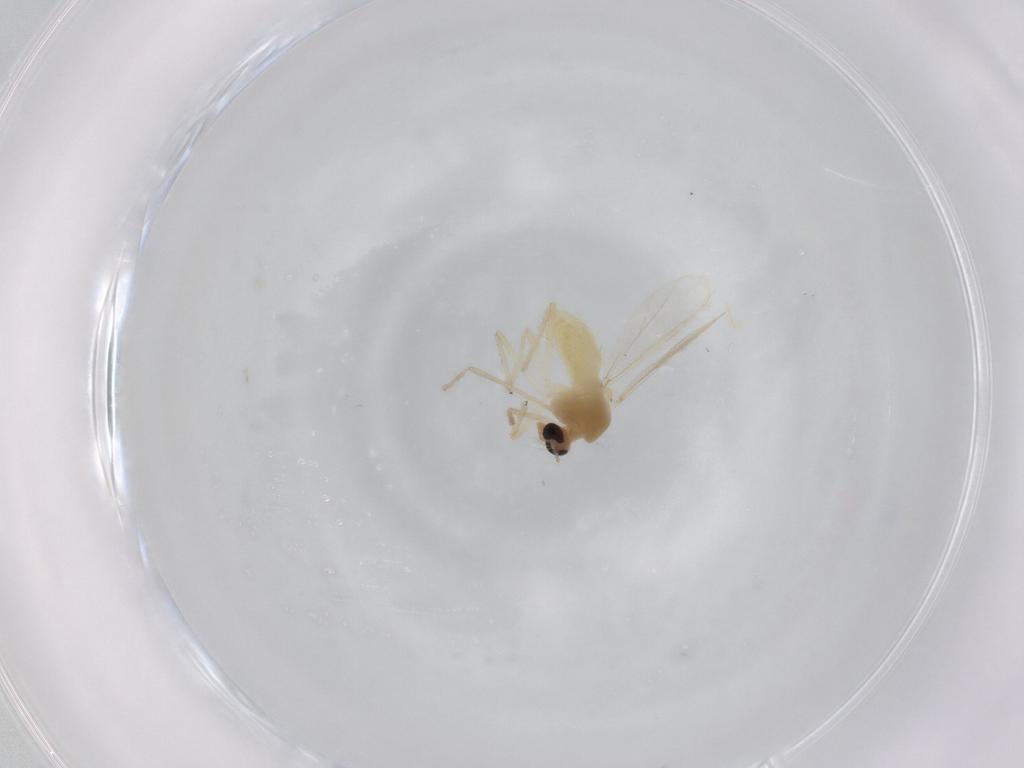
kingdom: Animalia
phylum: Arthropoda
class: Insecta
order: Diptera
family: Chironomidae
